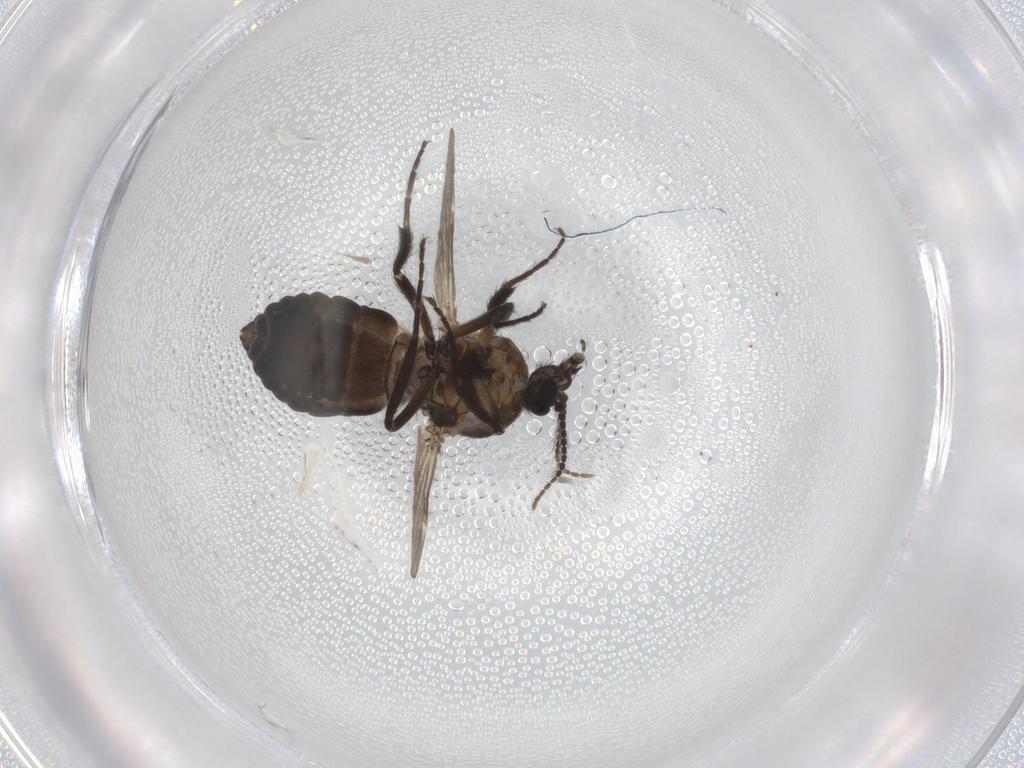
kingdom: Animalia
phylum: Arthropoda
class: Insecta
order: Diptera
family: Ceratopogonidae
